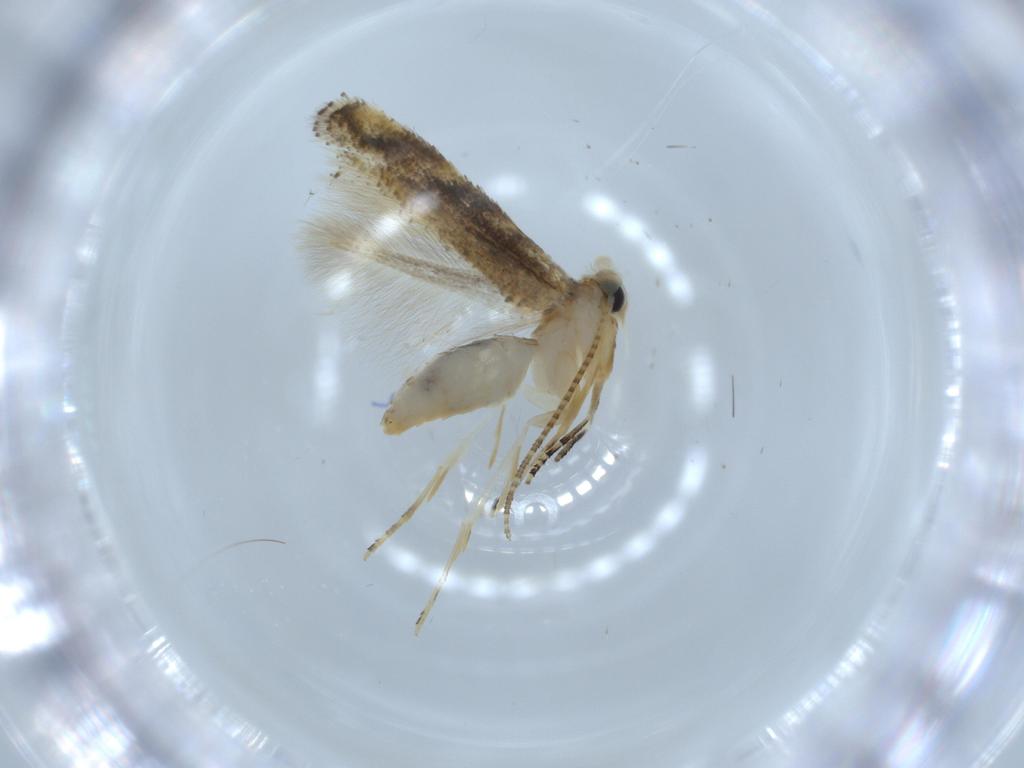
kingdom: Animalia
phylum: Arthropoda
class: Insecta
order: Lepidoptera
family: Bucculatricidae
